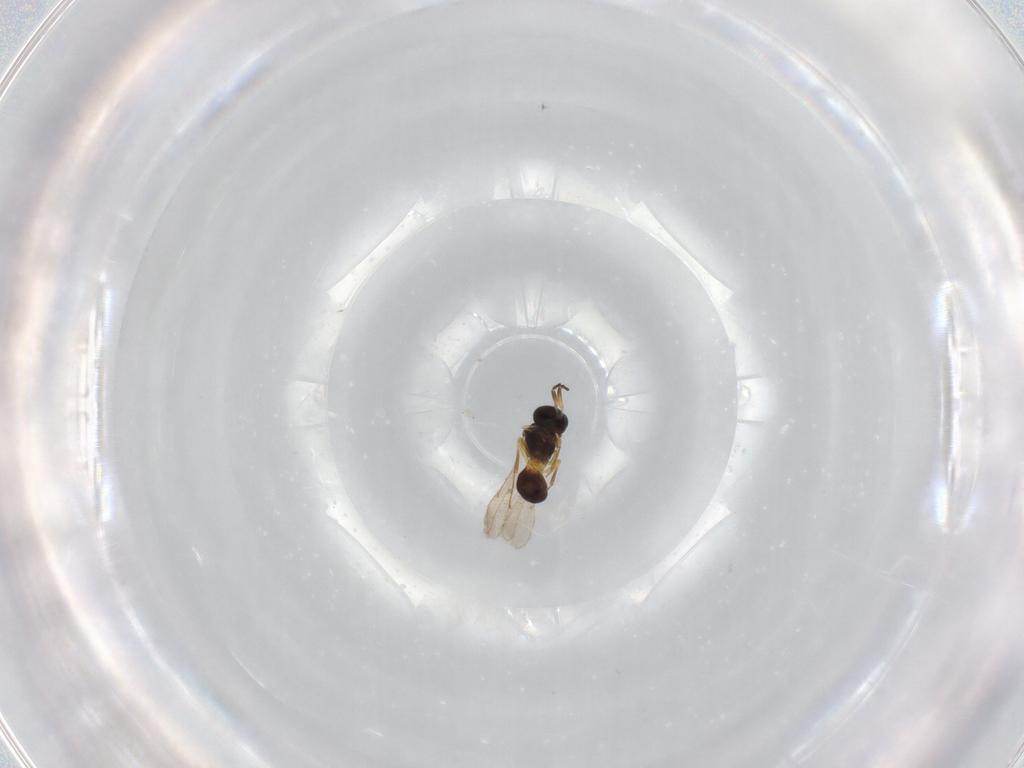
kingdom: Animalia
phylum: Arthropoda
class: Insecta
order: Hymenoptera
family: Scelionidae
